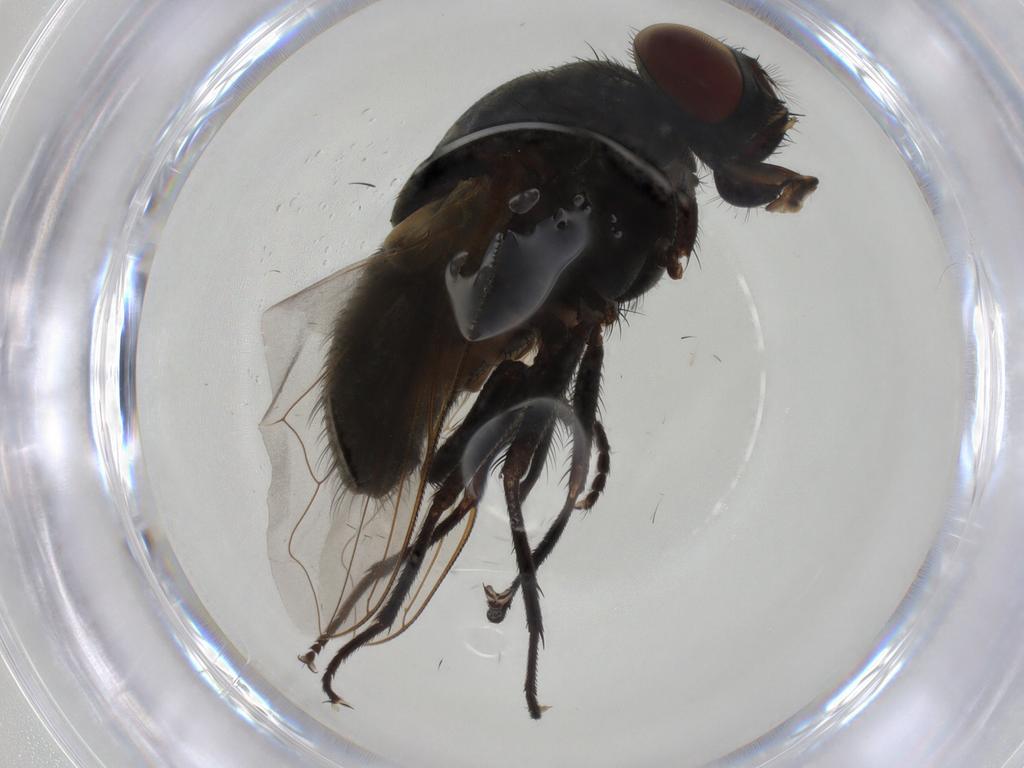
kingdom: Animalia
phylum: Arthropoda
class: Insecta
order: Diptera
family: Muscidae
